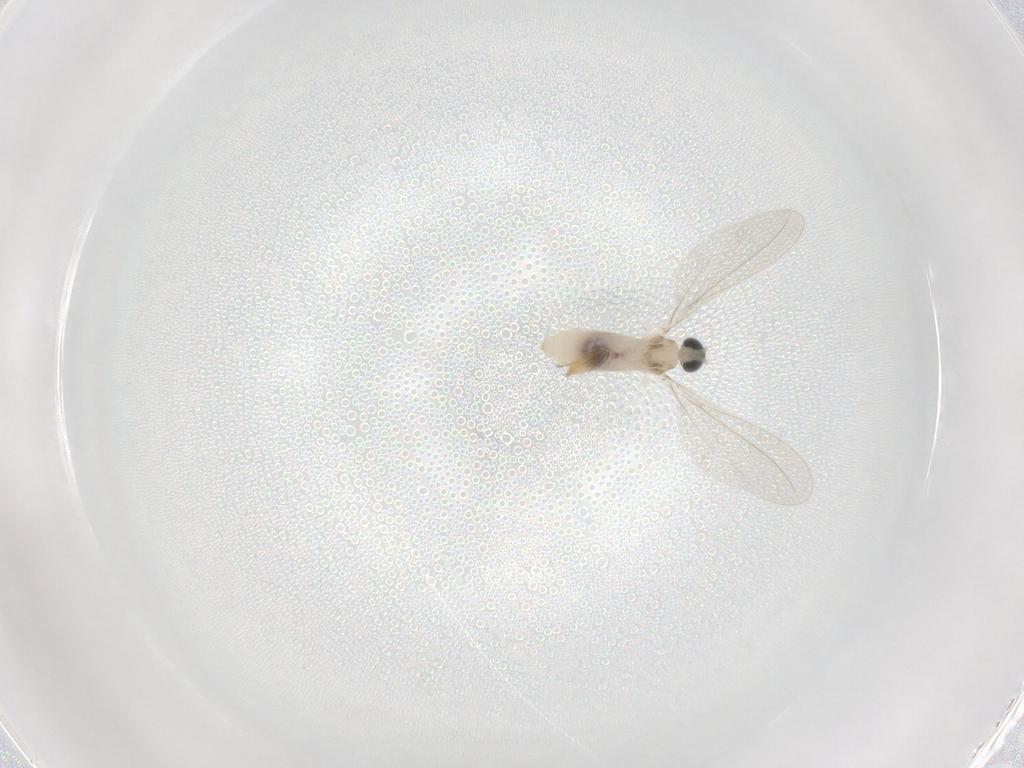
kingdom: Animalia
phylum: Arthropoda
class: Insecta
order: Diptera
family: Cecidomyiidae
